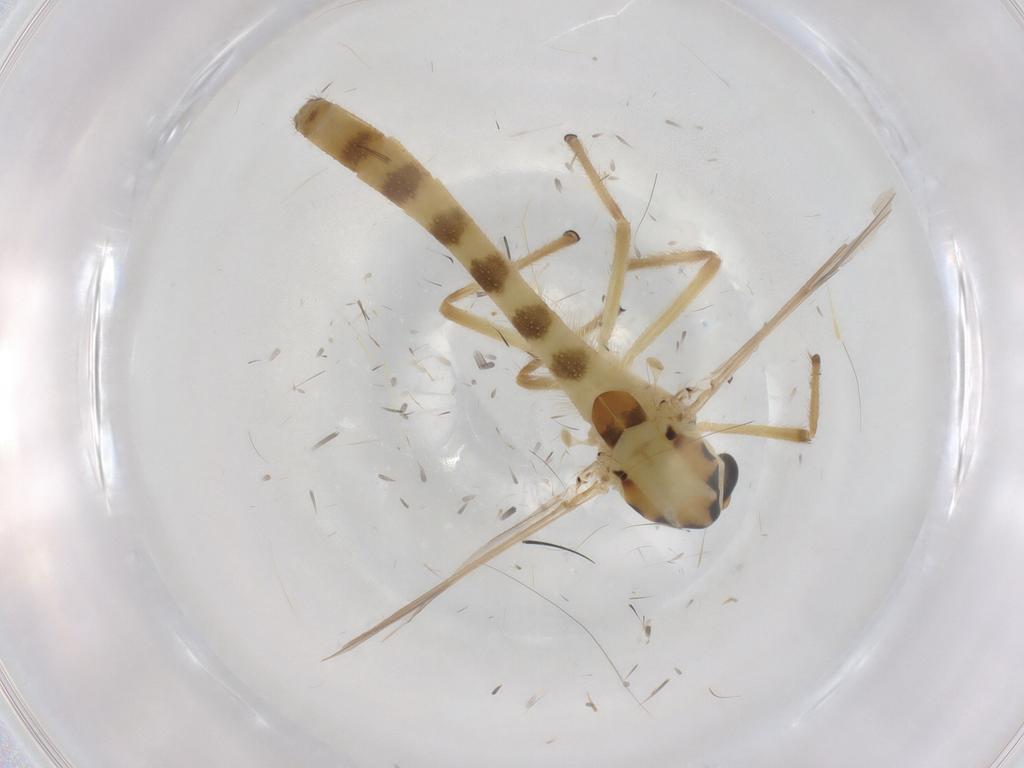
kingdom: Animalia
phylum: Arthropoda
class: Insecta
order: Diptera
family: Chironomidae
